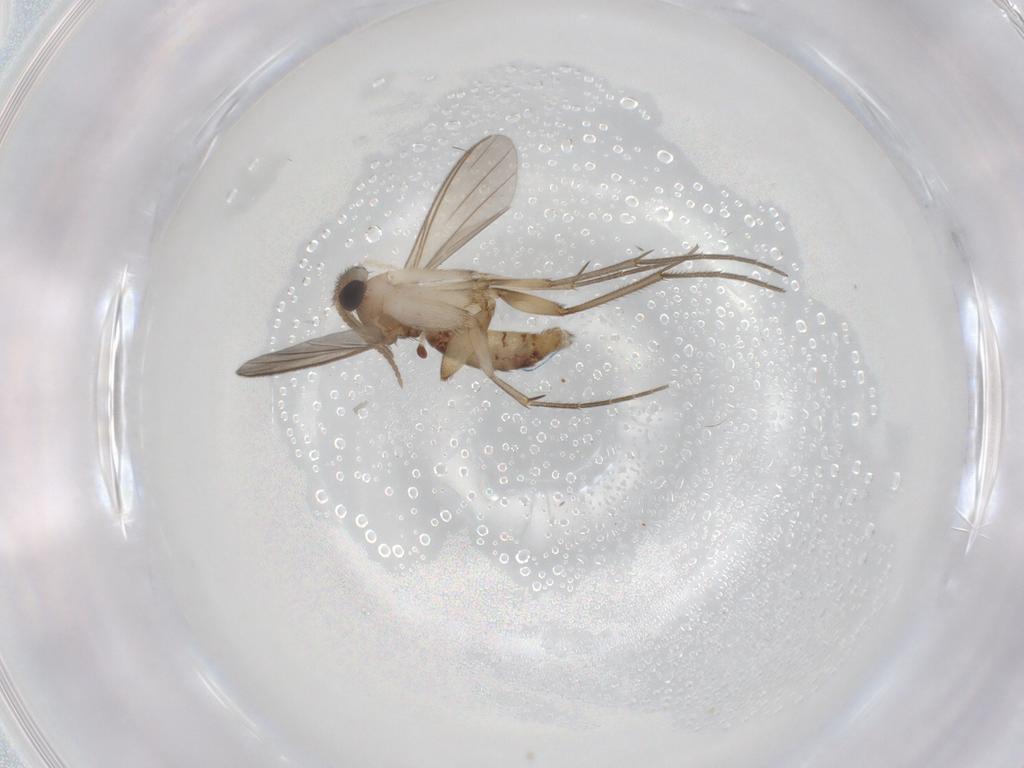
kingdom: Animalia
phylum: Arthropoda
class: Insecta
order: Diptera
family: Mycetophilidae
